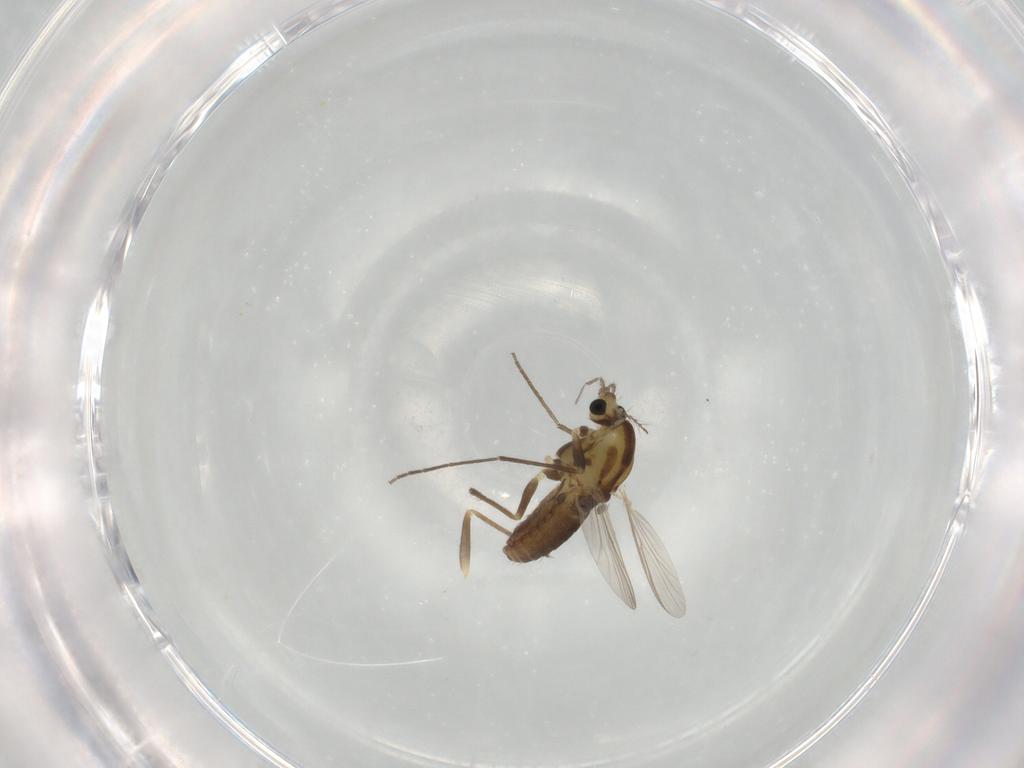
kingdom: Animalia
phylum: Arthropoda
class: Insecta
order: Diptera
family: Chironomidae
